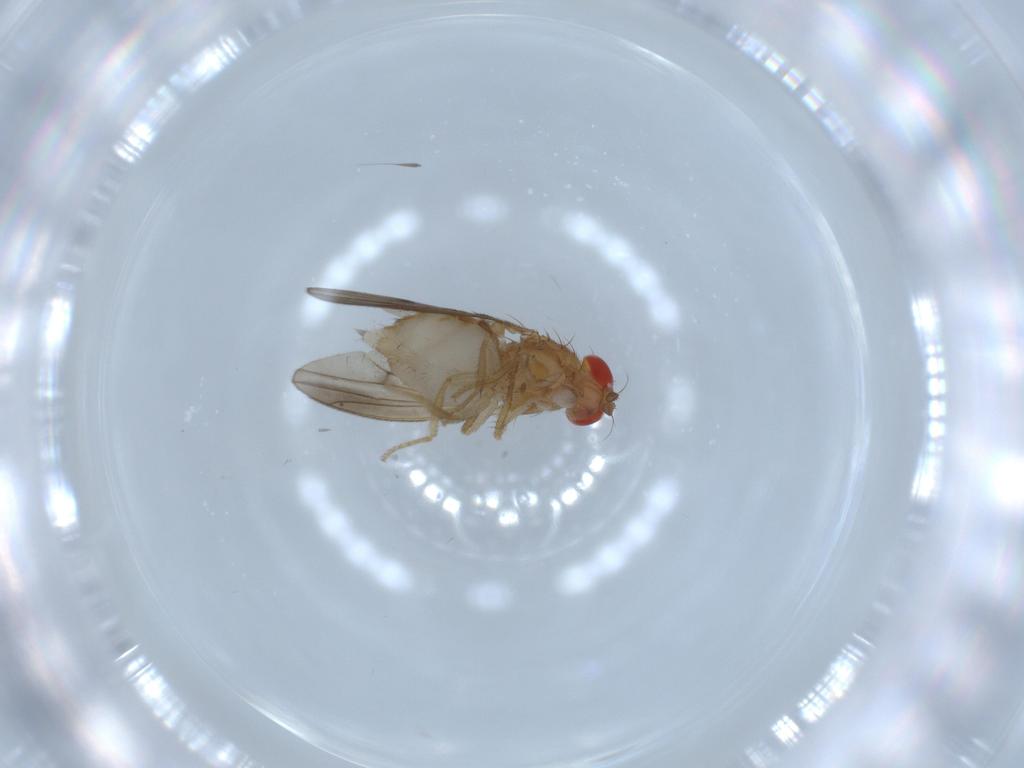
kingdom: Animalia
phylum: Arthropoda
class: Insecta
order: Diptera
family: Drosophilidae
